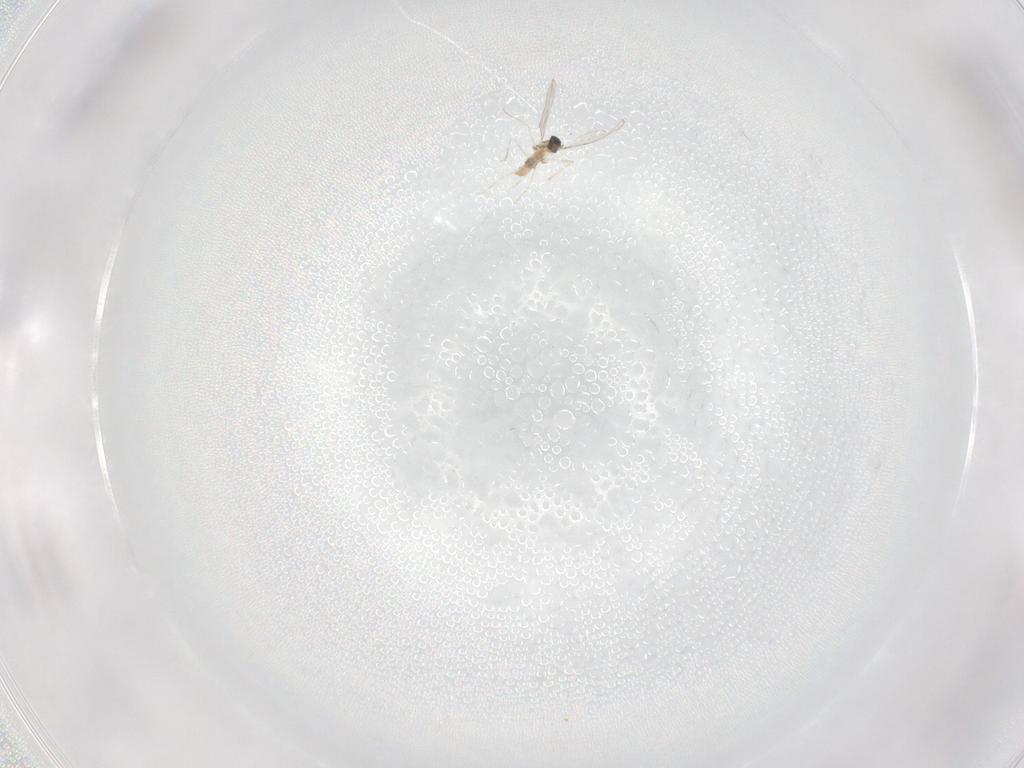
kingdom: Animalia
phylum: Arthropoda
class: Insecta
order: Diptera
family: Cecidomyiidae
